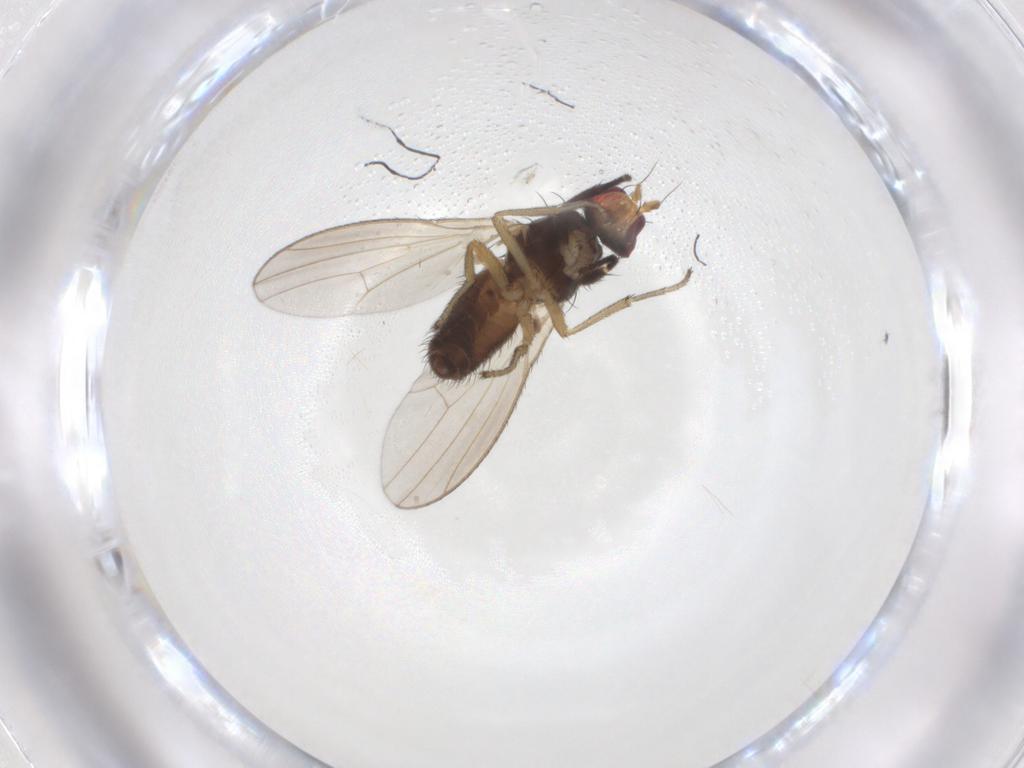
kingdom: Animalia
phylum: Arthropoda
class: Insecta
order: Diptera
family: Heleomyzidae
